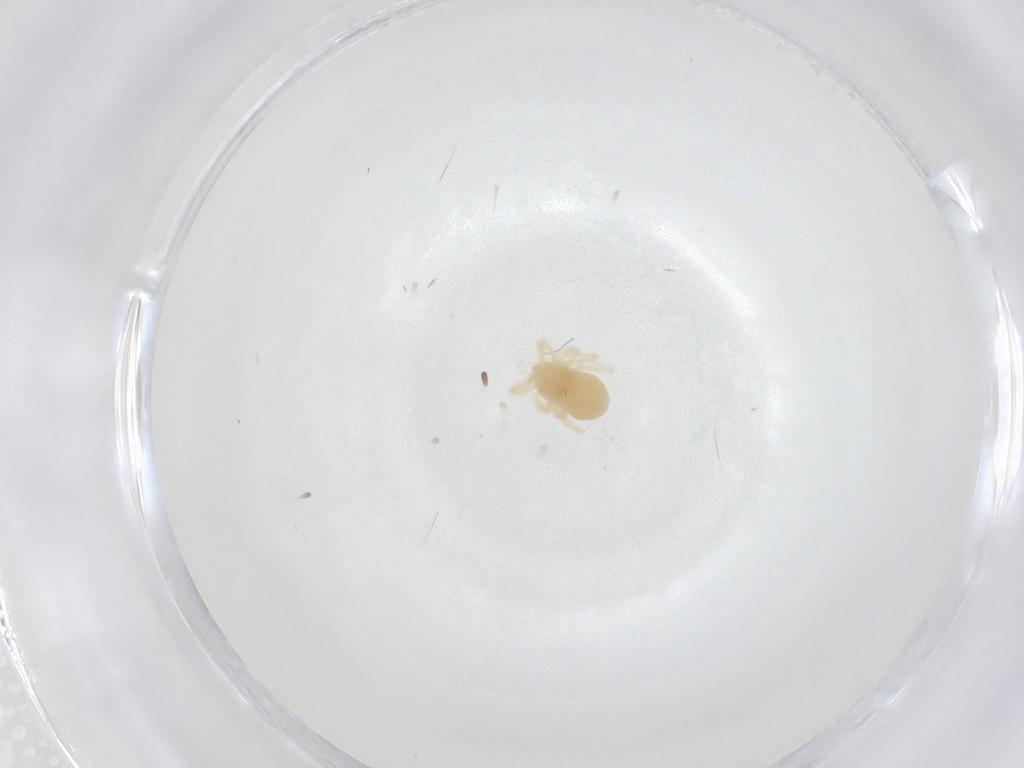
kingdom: Animalia
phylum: Arthropoda
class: Arachnida
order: Trombidiformes
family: Anystidae
